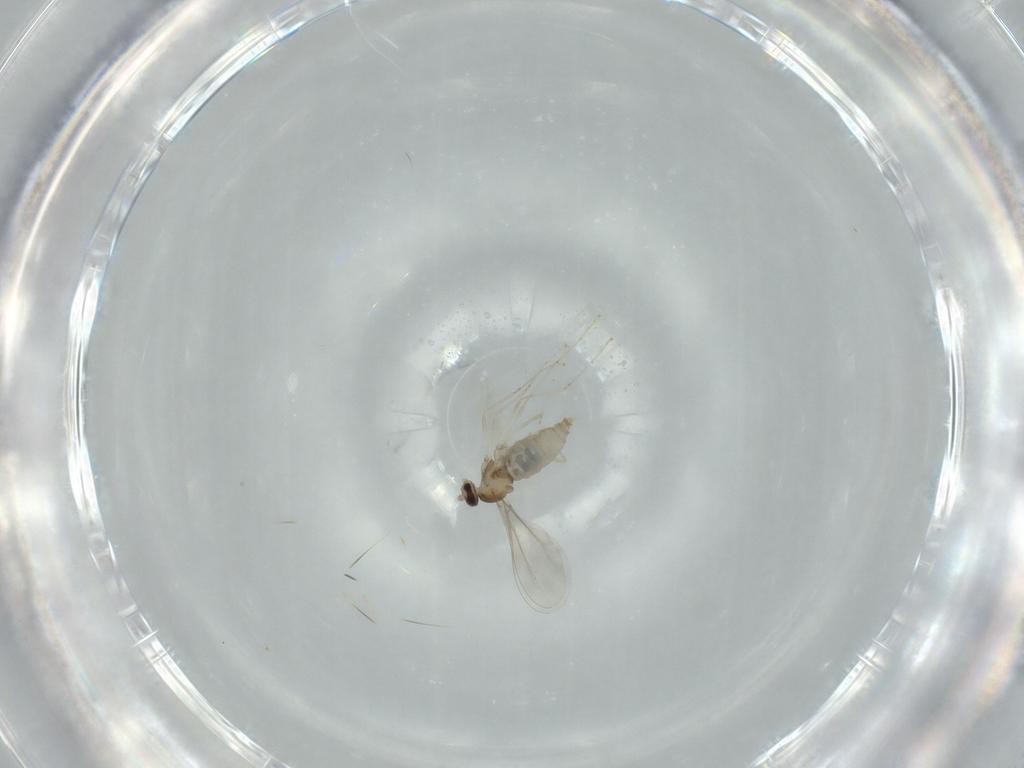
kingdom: Animalia
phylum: Arthropoda
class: Insecta
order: Diptera
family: Cecidomyiidae
